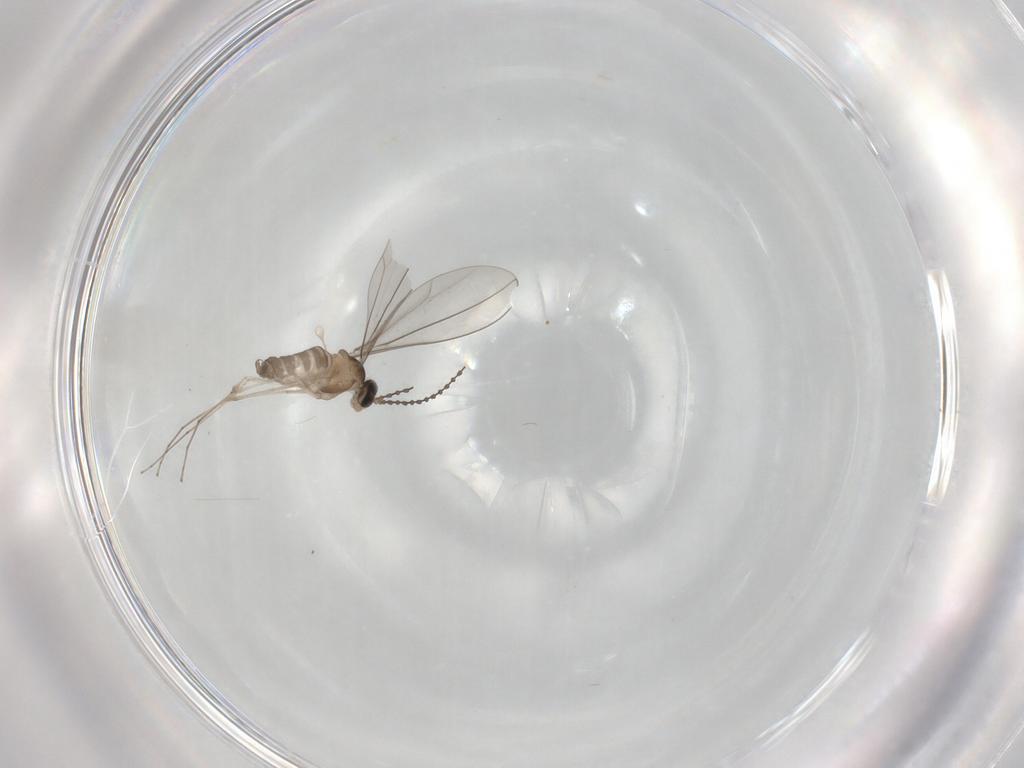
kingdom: Animalia
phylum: Arthropoda
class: Insecta
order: Diptera
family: Cecidomyiidae
